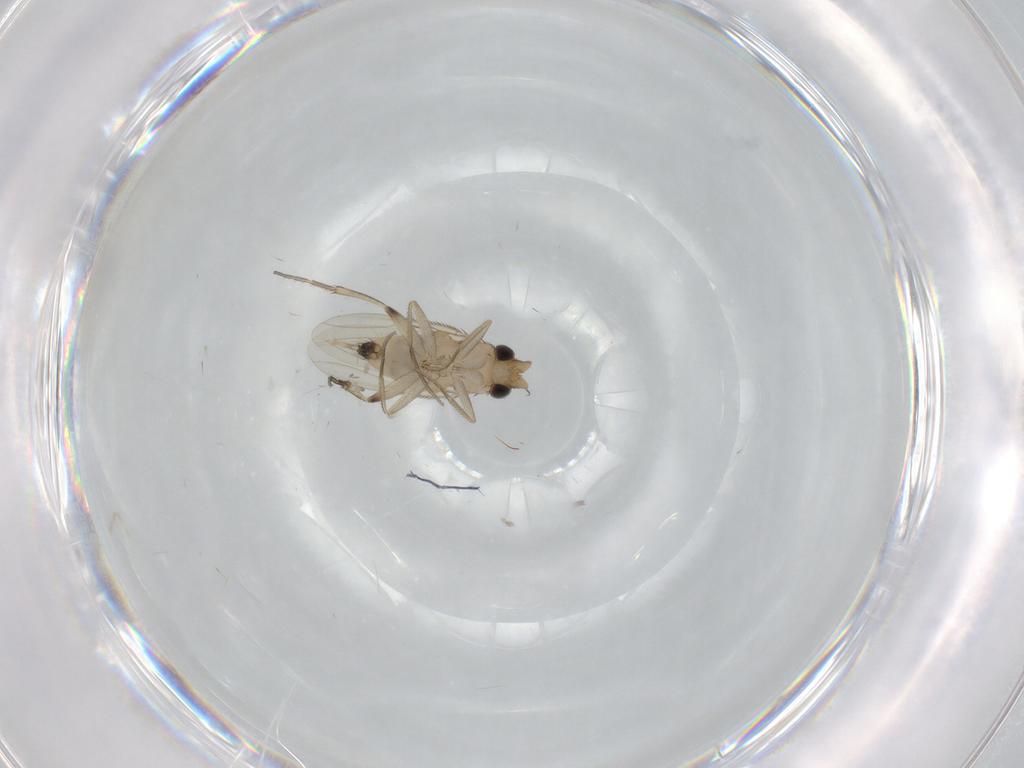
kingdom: Animalia
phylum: Arthropoda
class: Insecta
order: Diptera
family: Phoridae
